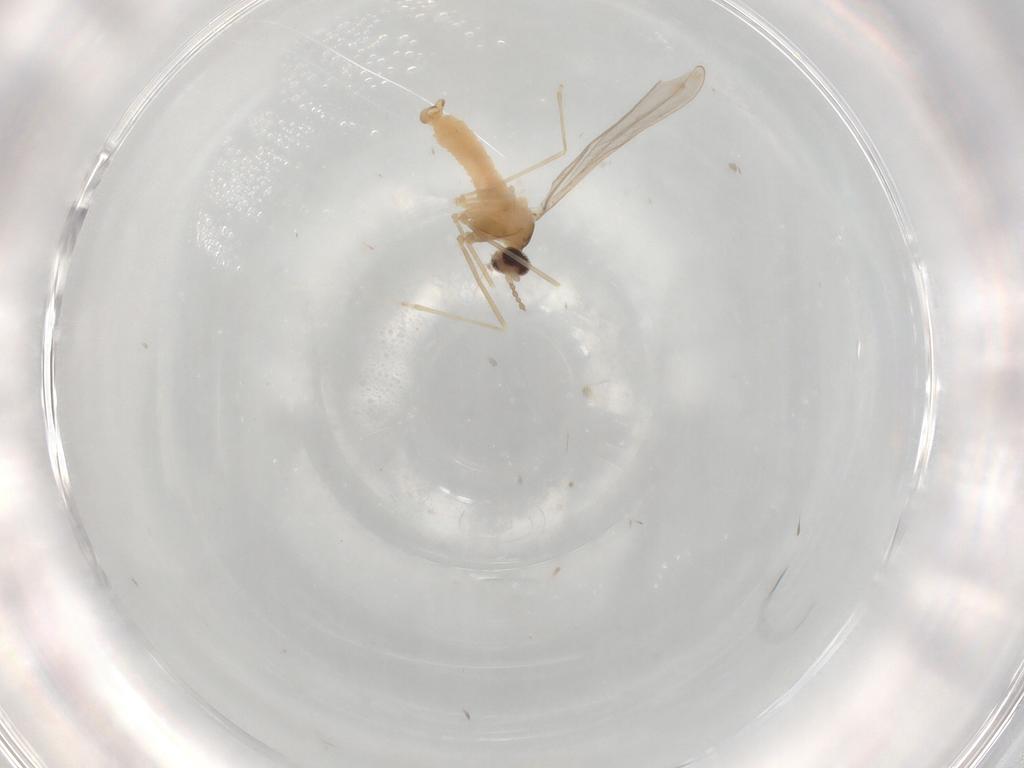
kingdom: Animalia
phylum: Arthropoda
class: Insecta
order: Diptera
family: Cecidomyiidae
